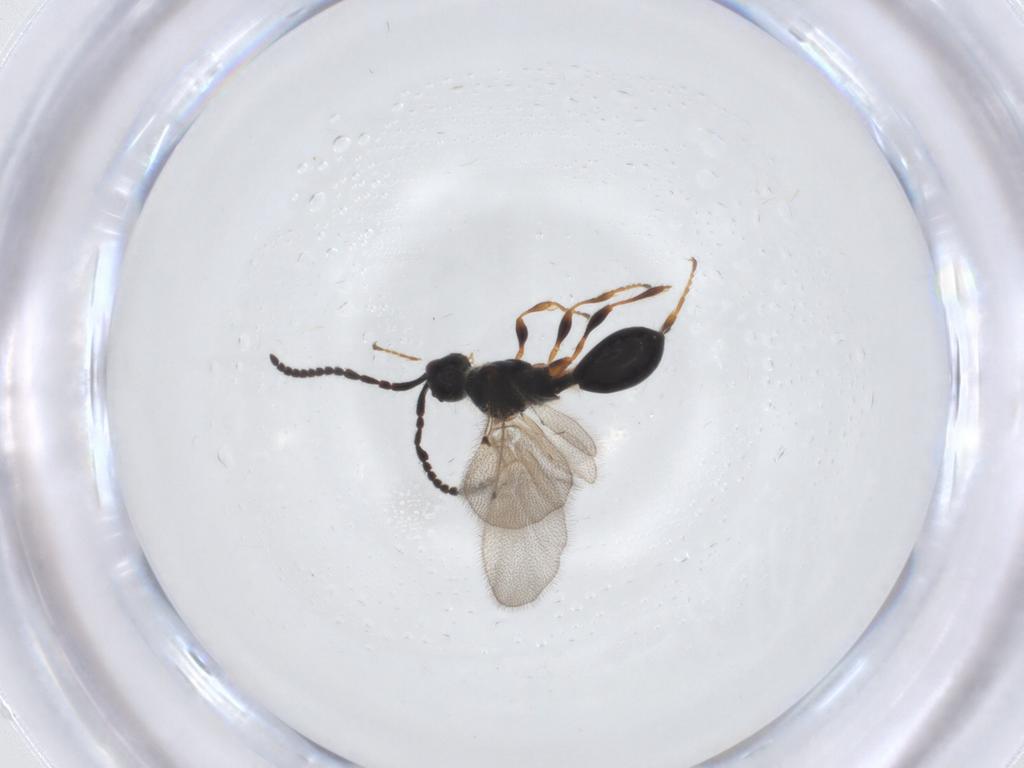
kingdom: Animalia
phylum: Arthropoda
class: Insecta
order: Hymenoptera
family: Diapriidae
